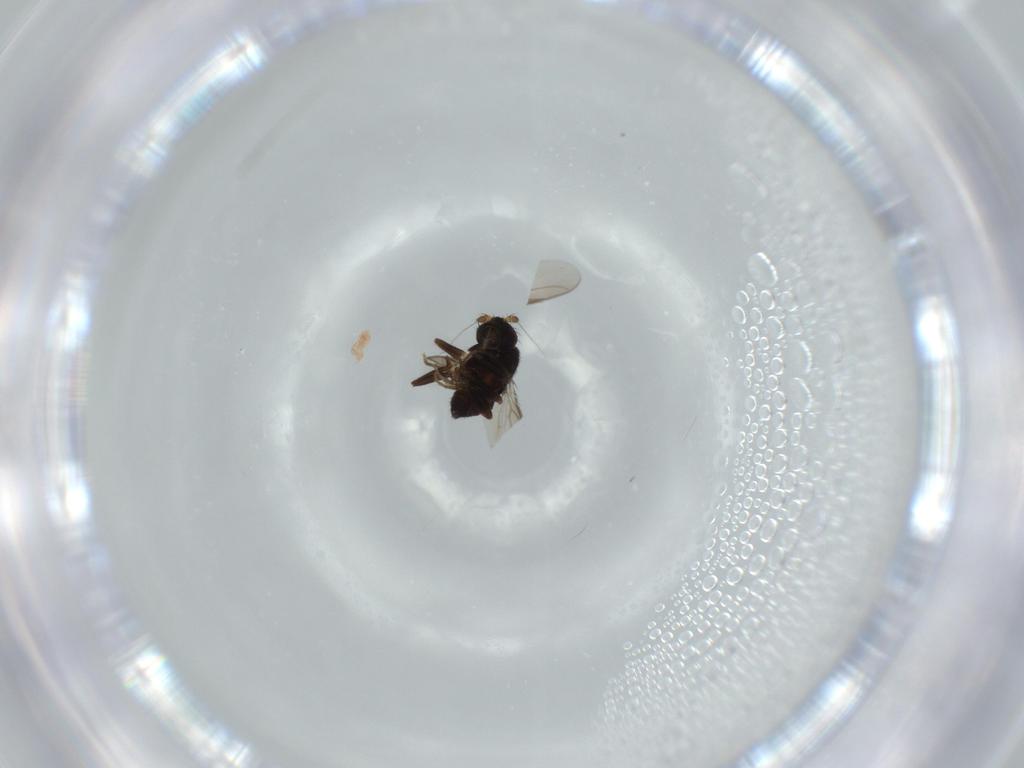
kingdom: Animalia
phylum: Arthropoda
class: Insecta
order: Diptera
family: Sphaeroceridae
